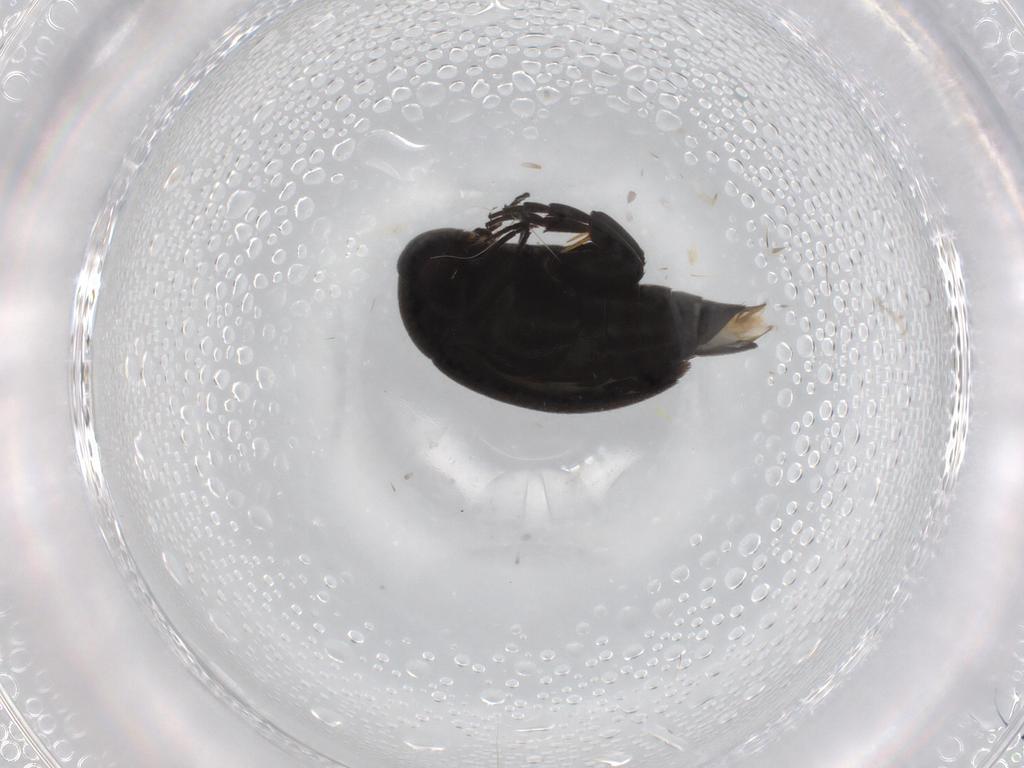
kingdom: Animalia
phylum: Arthropoda
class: Insecta
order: Coleoptera
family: Mordellidae
